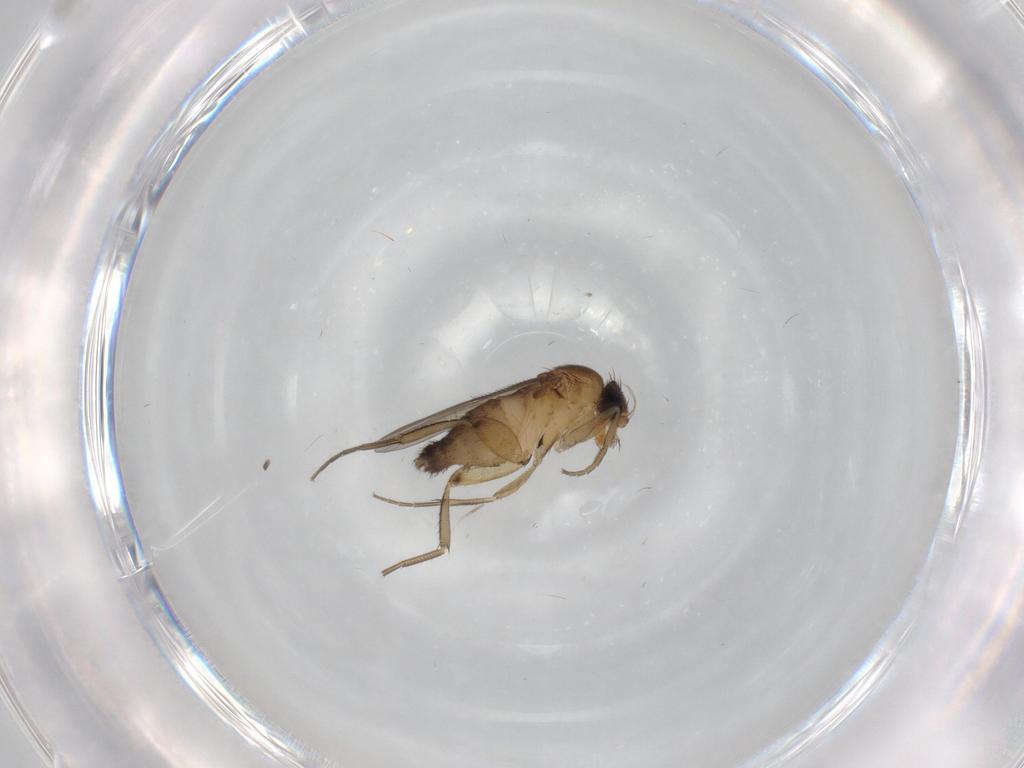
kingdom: Animalia
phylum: Arthropoda
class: Insecta
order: Diptera
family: Phoridae
